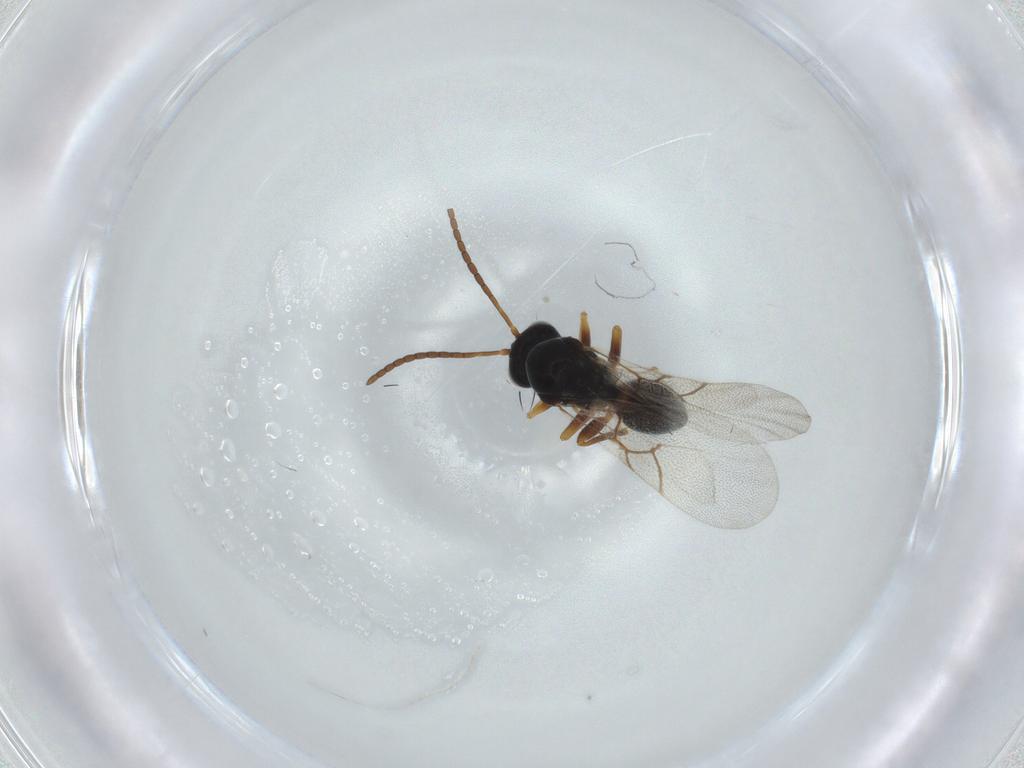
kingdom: Animalia
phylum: Arthropoda
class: Insecta
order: Hymenoptera
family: Figitidae
